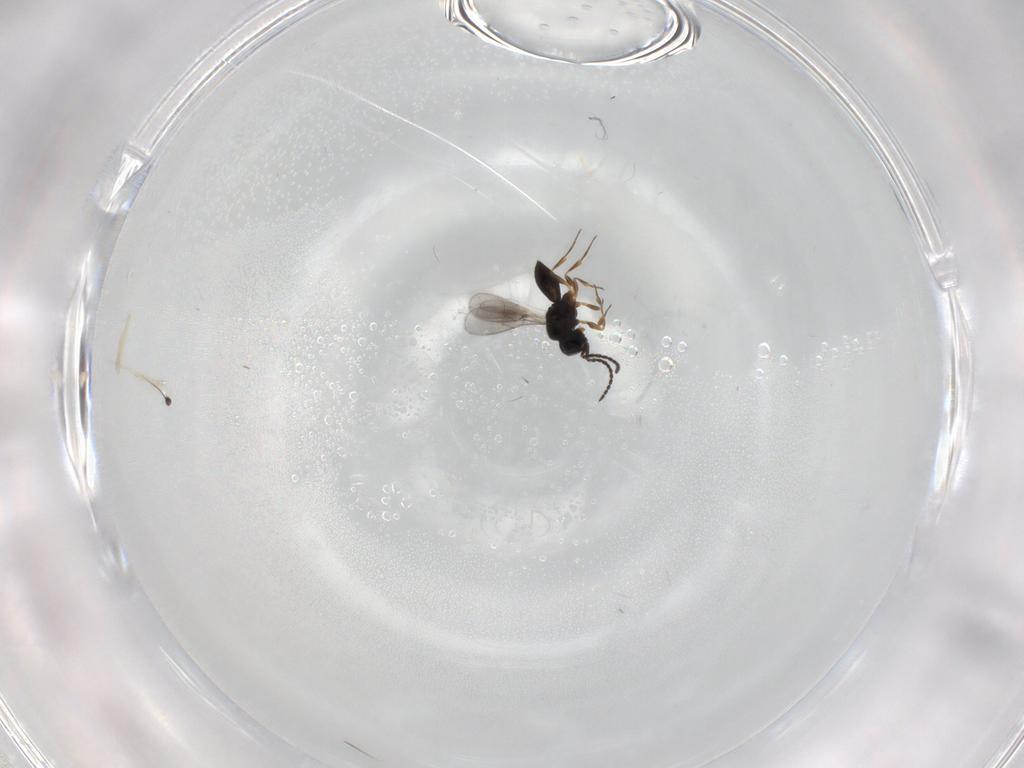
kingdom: Animalia
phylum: Arthropoda
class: Insecta
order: Hymenoptera
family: Scelionidae
